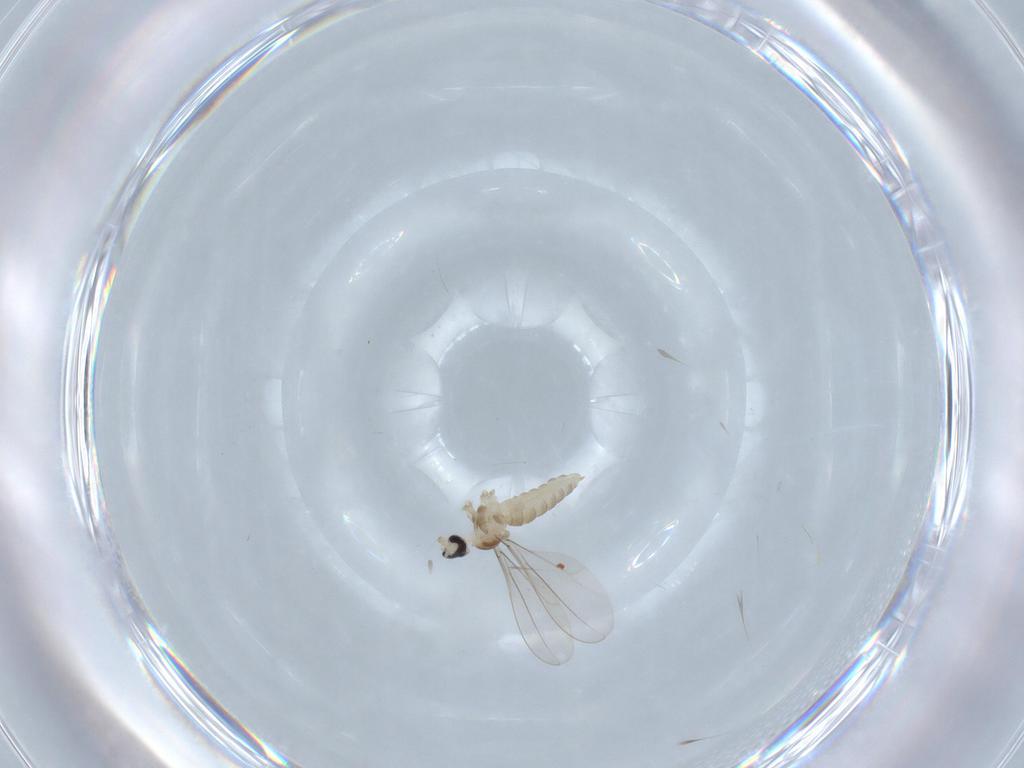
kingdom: Animalia
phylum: Arthropoda
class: Insecta
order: Diptera
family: Cecidomyiidae
